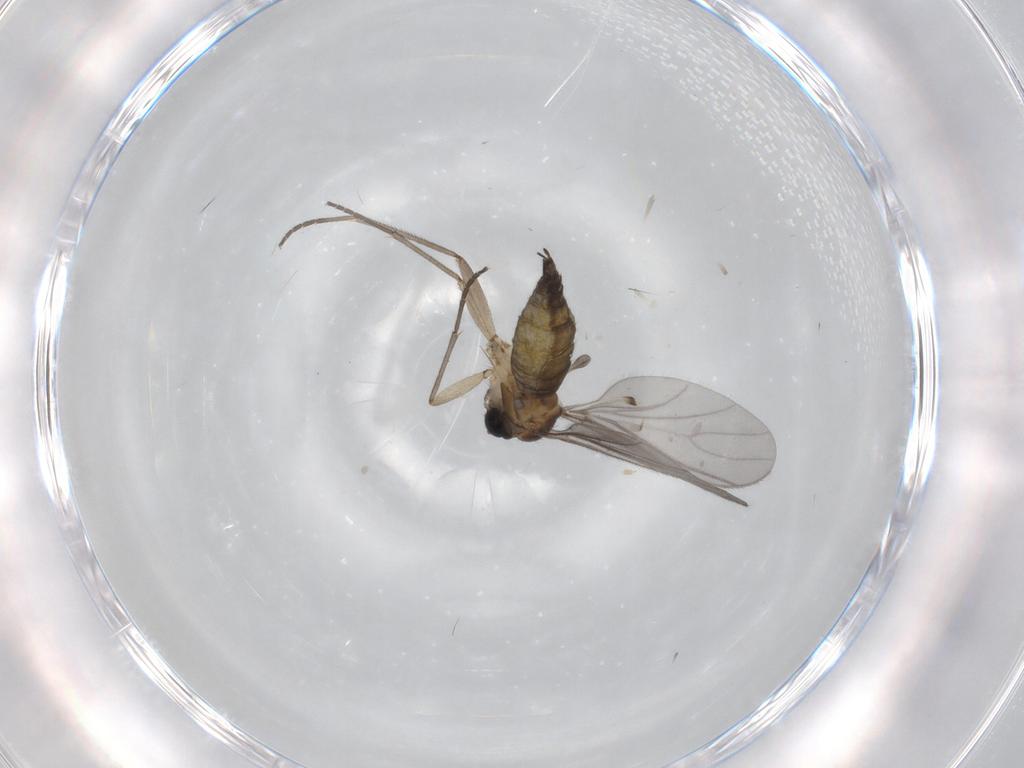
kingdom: Animalia
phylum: Arthropoda
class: Insecta
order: Diptera
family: Sciaridae
